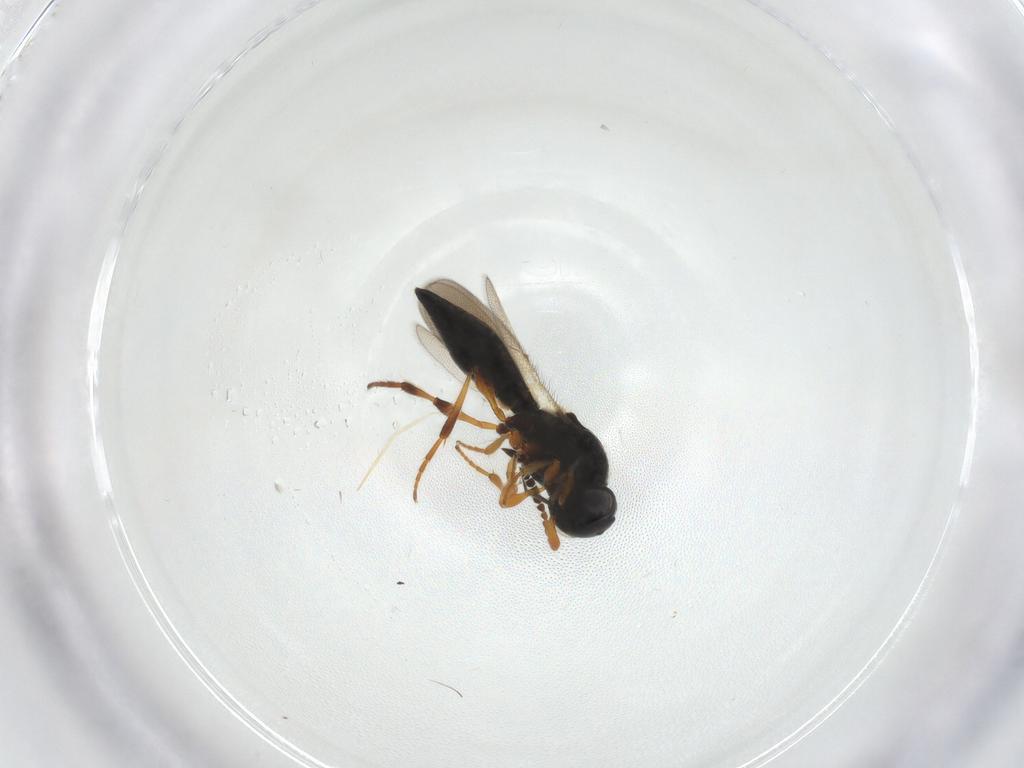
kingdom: Animalia
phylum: Arthropoda
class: Insecta
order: Hymenoptera
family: Platygastridae
